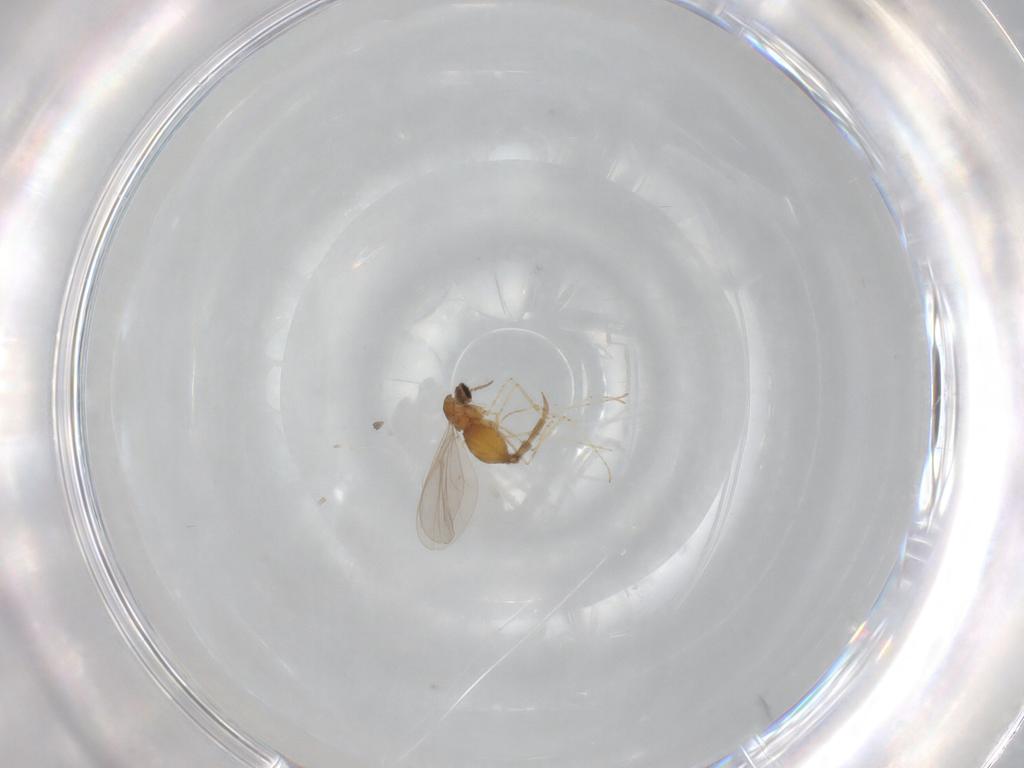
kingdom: Animalia
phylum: Arthropoda
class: Insecta
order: Diptera
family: Cecidomyiidae
